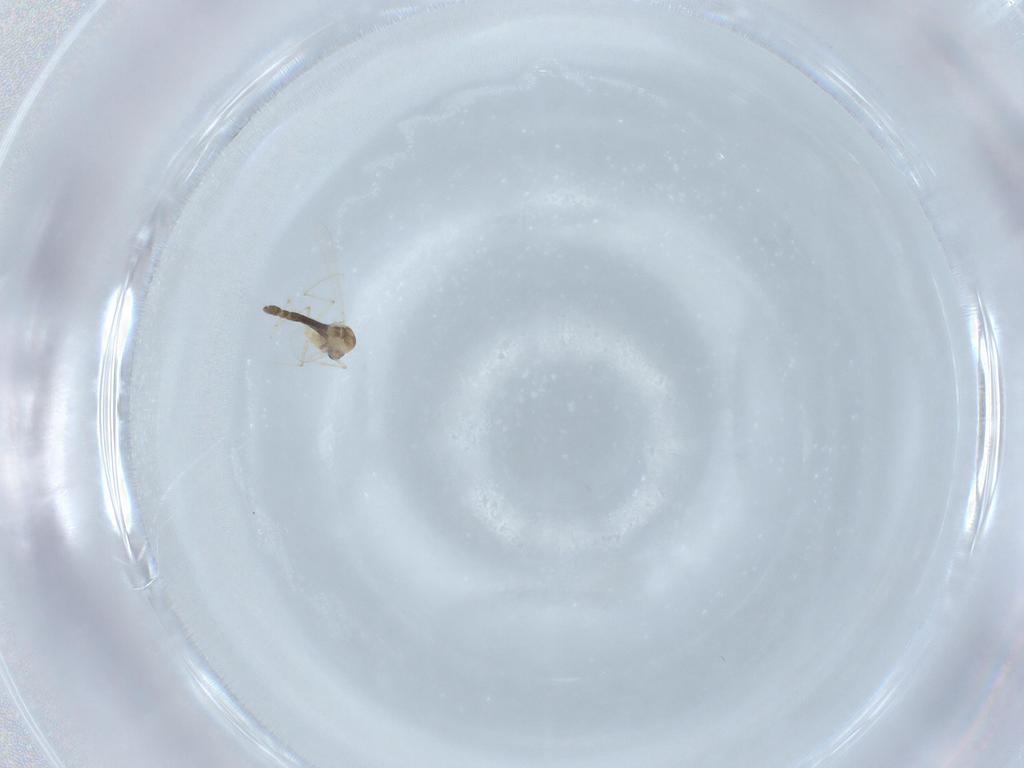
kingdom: Animalia
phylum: Arthropoda
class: Insecta
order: Diptera
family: Chironomidae
